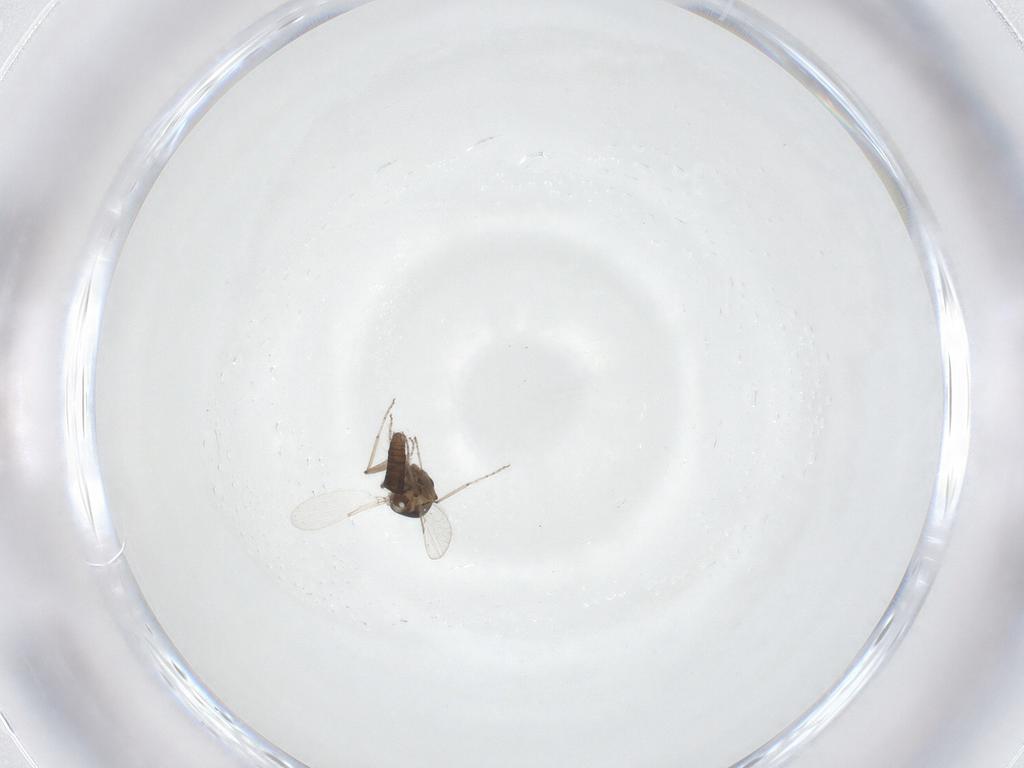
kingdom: Animalia
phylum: Arthropoda
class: Insecta
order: Diptera
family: Ceratopogonidae
